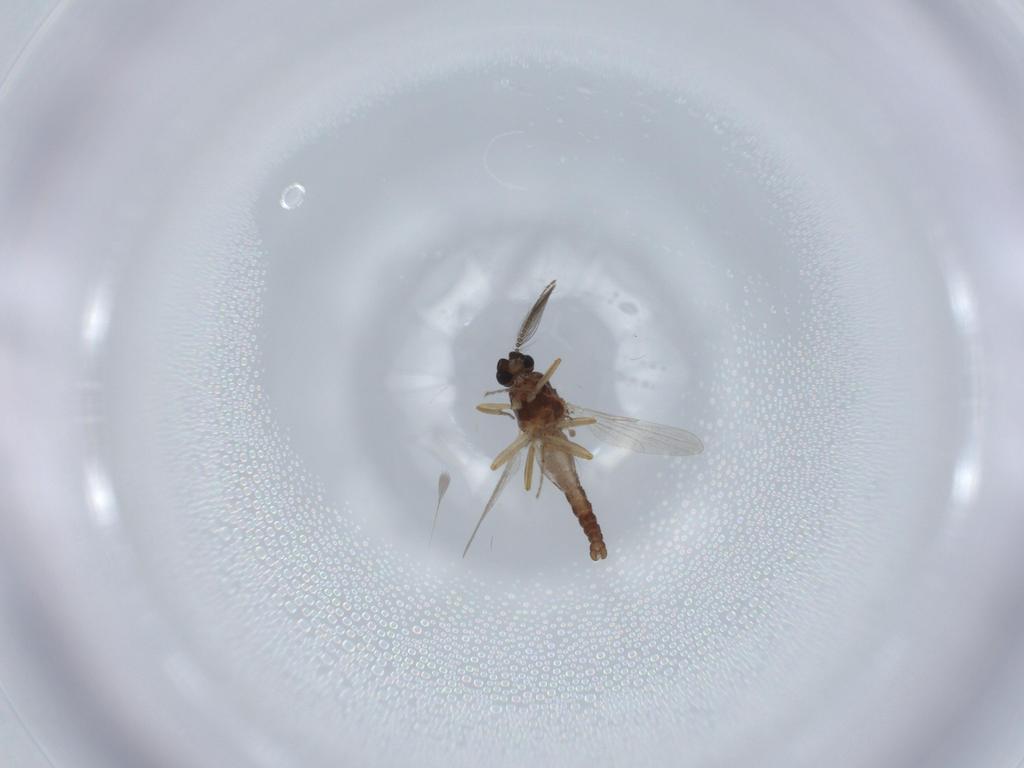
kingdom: Animalia
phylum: Arthropoda
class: Insecta
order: Diptera
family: Ceratopogonidae
